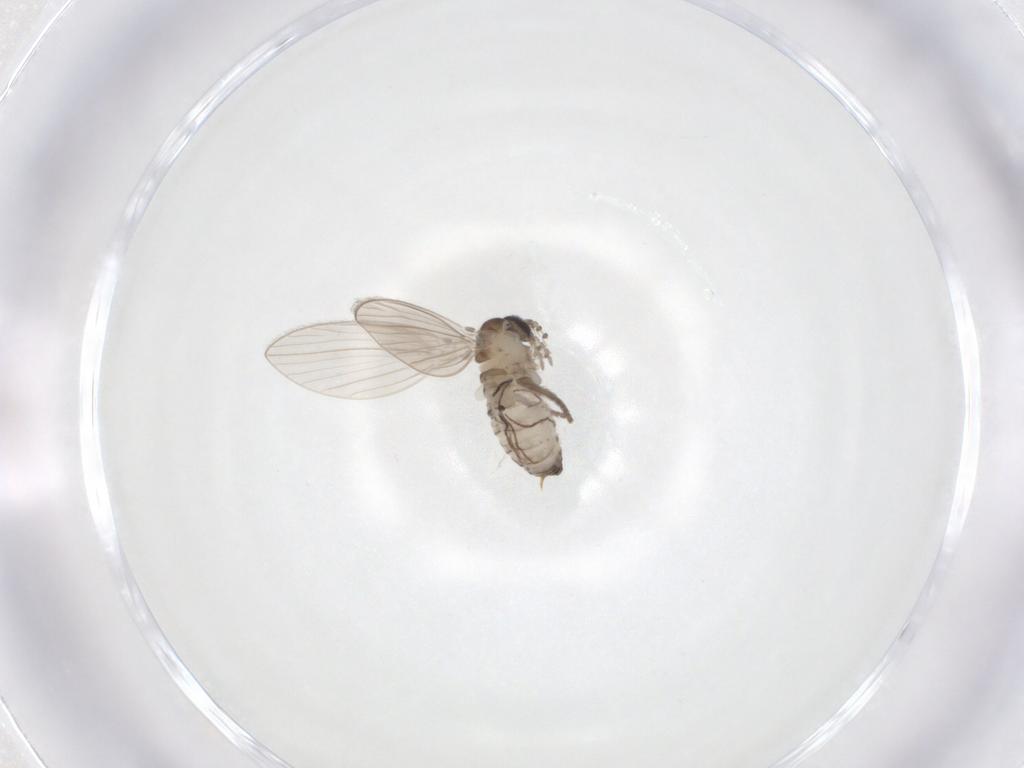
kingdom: Animalia
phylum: Arthropoda
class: Insecta
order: Diptera
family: Psychodidae
